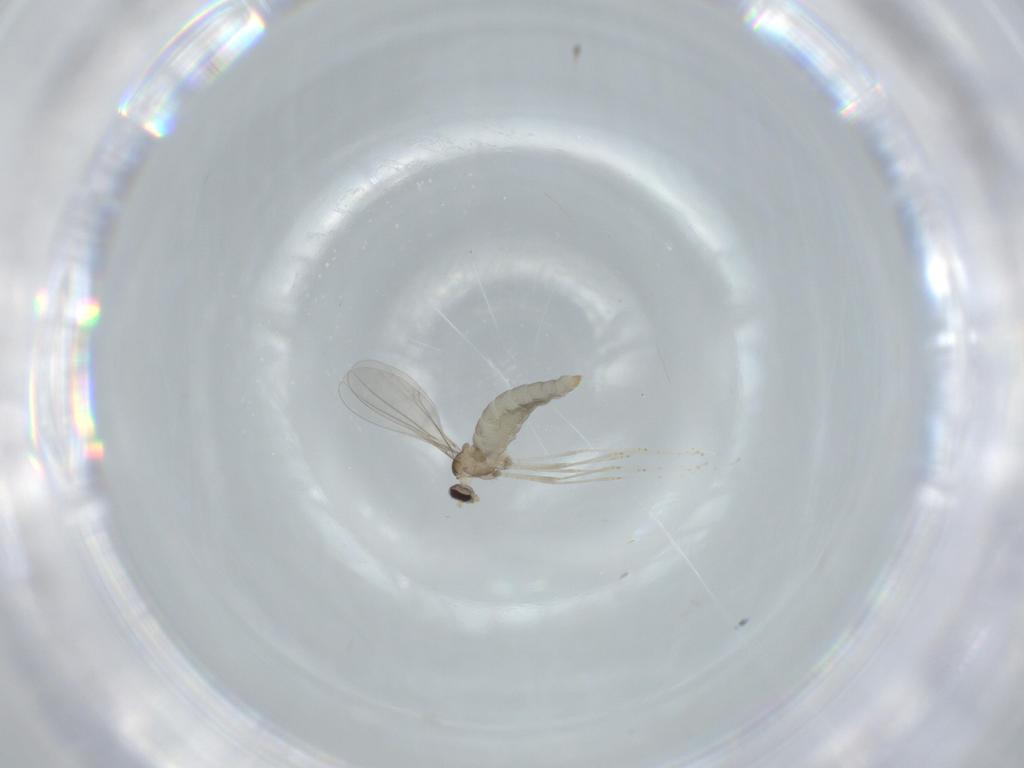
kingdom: Animalia
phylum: Arthropoda
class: Insecta
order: Diptera
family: Cecidomyiidae
